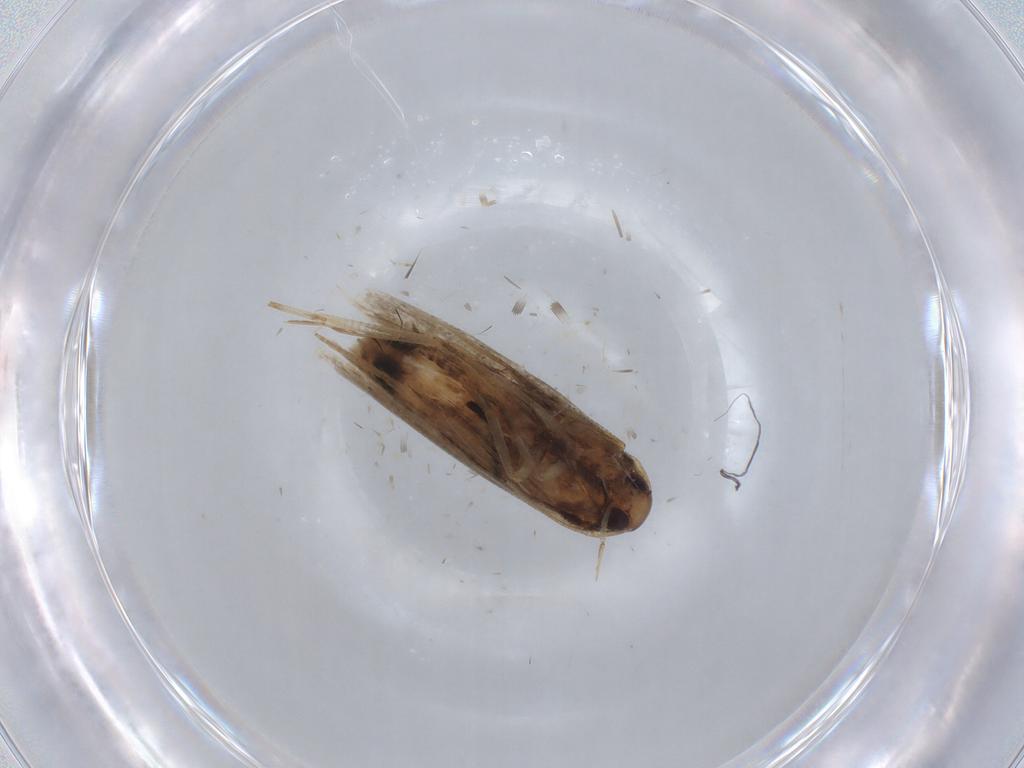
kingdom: Animalia
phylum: Arthropoda
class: Insecta
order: Lepidoptera
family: Oecophoridae
